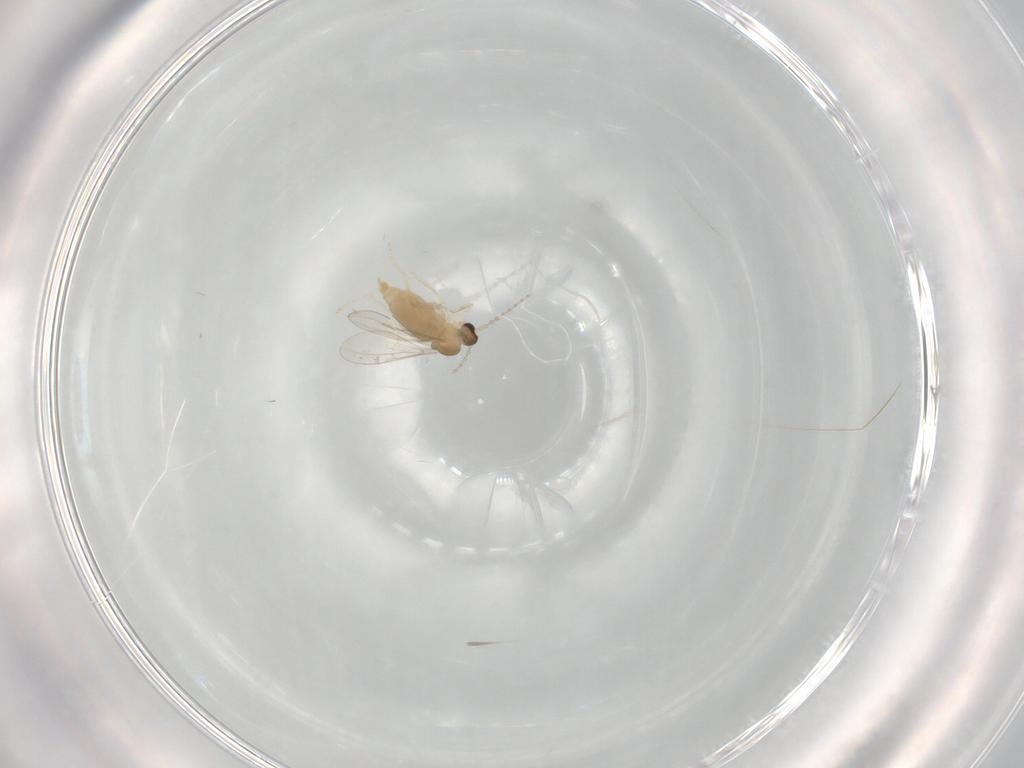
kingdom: Animalia
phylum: Arthropoda
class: Insecta
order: Diptera
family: Cecidomyiidae
